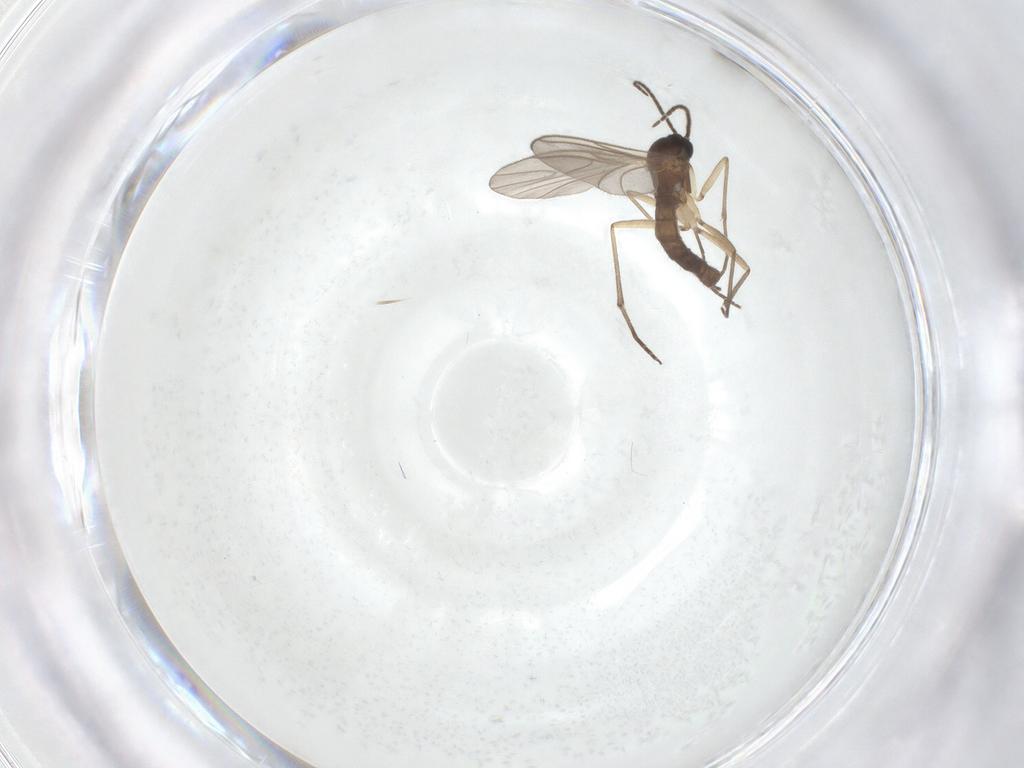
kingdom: Animalia
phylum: Arthropoda
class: Insecta
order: Diptera
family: Sciaridae
